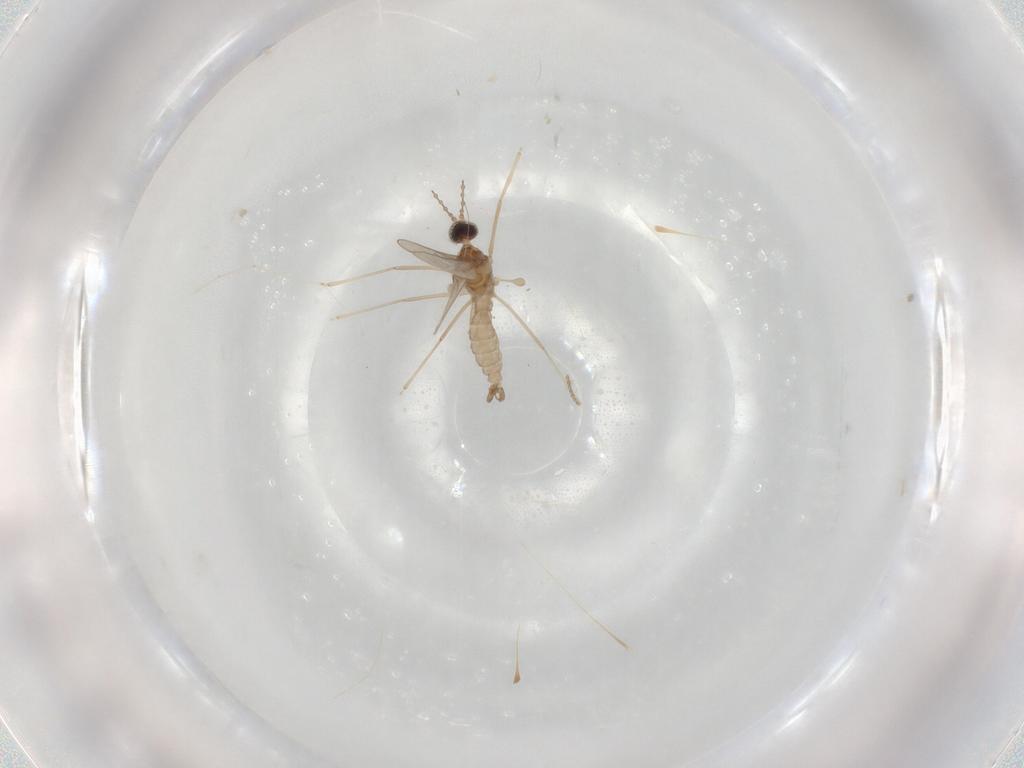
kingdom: Animalia
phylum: Arthropoda
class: Insecta
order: Diptera
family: Cecidomyiidae
